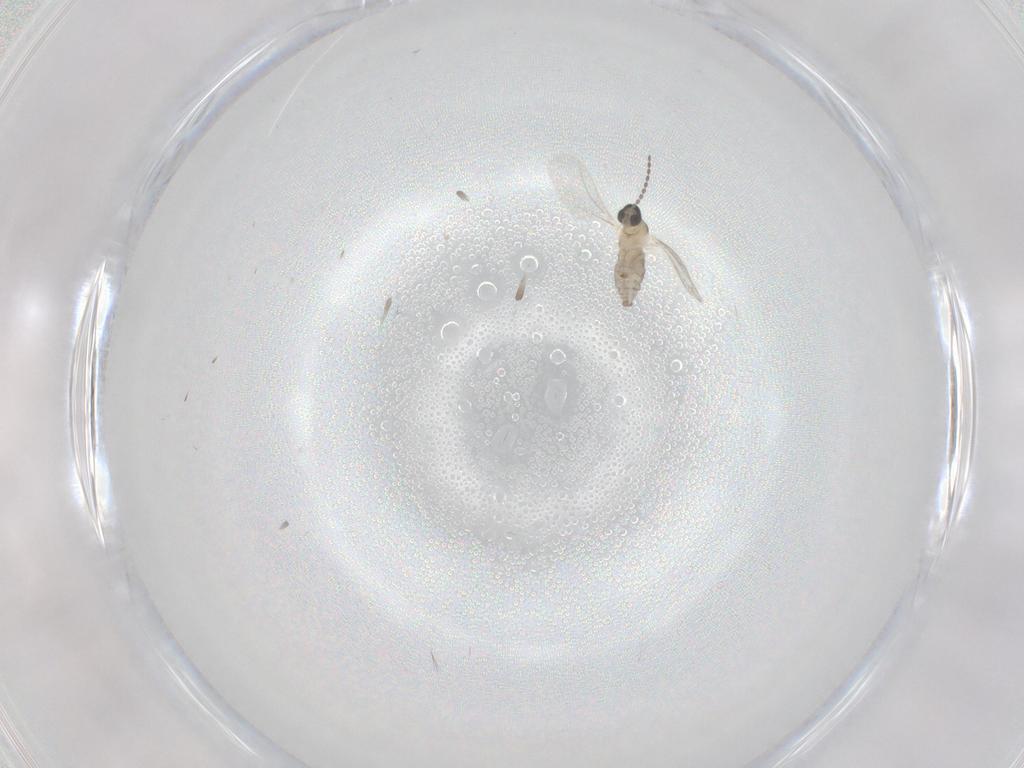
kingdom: Animalia
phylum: Arthropoda
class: Insecta
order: Diptera
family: Cecidomyiidae
